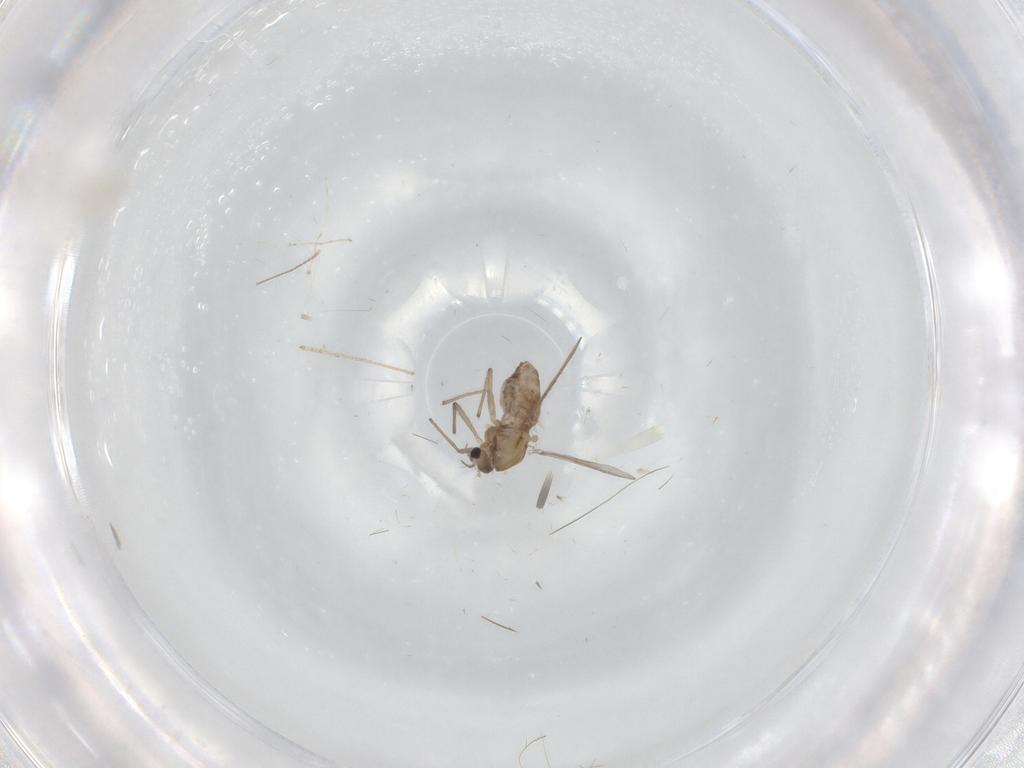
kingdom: Animalia
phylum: Arthropoda
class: Insecta
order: Diptera
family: Chironomidae
